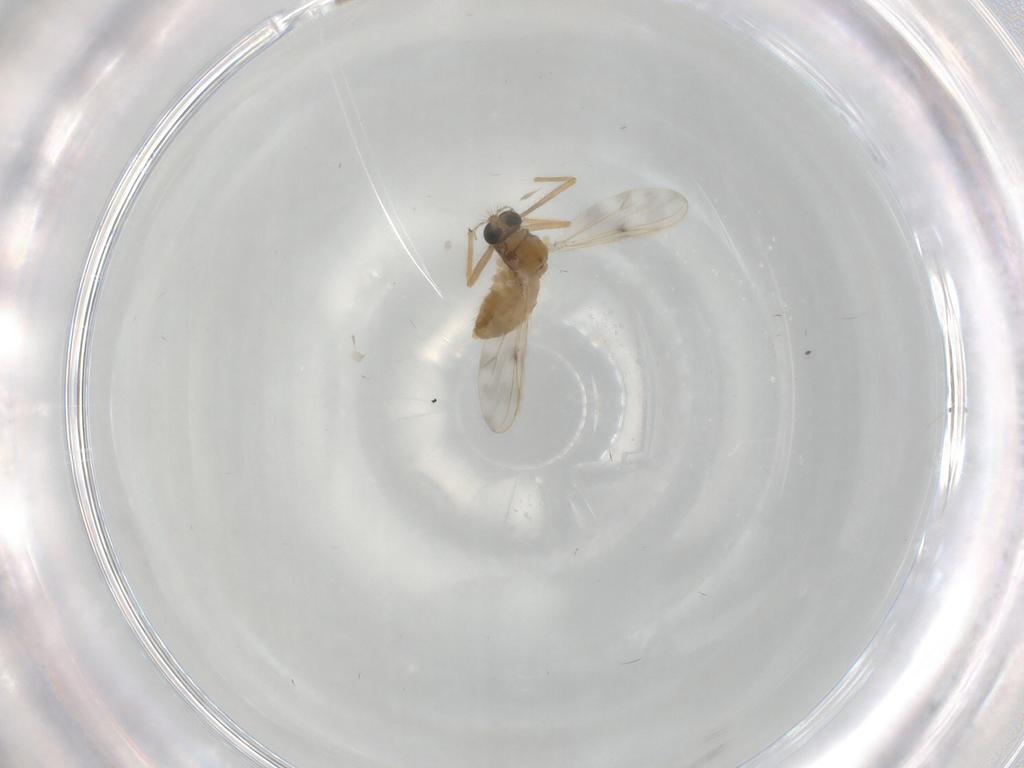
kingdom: Animalia
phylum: Arthropoda
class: Insecta
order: Diptera
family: Chironomidae
